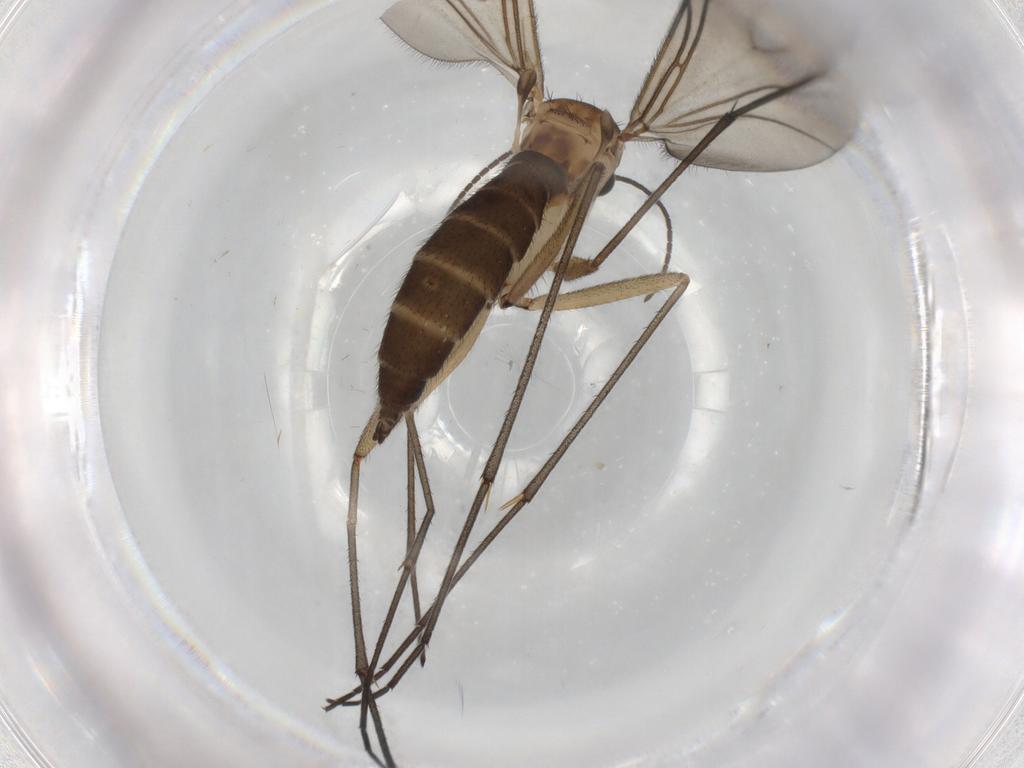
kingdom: Animalia
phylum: Arthropoda
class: Insecta
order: Diptera
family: Sciaridae
